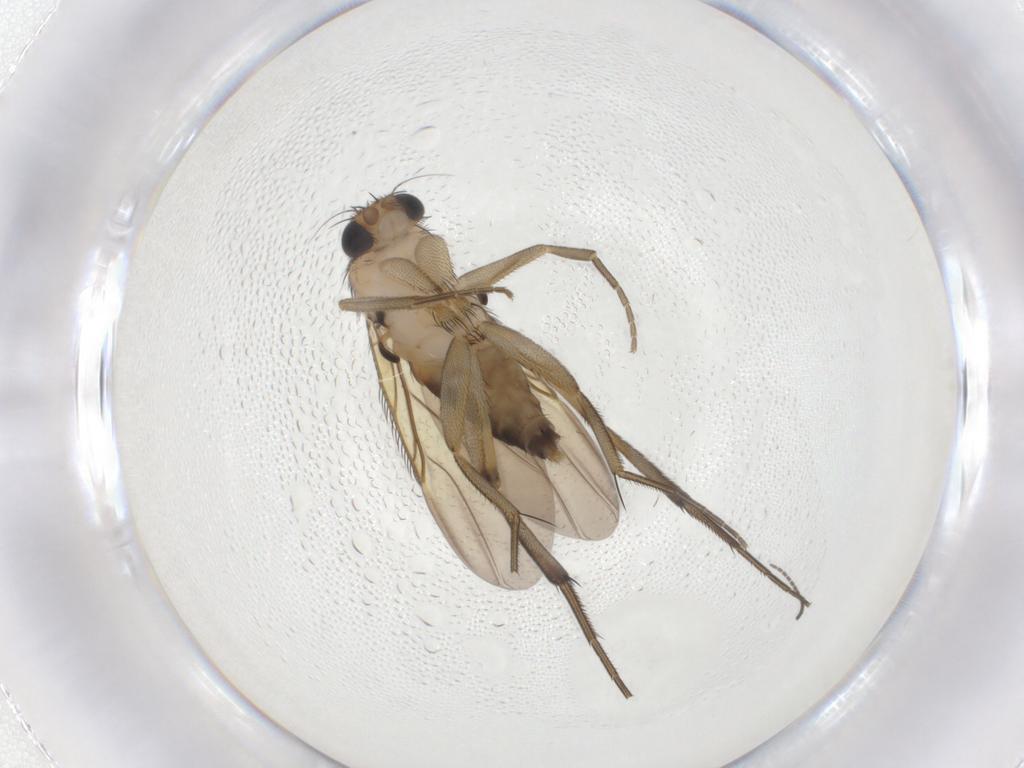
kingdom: Animalia
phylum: Arthropoda
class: Insecta
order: Diptera
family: Phoridae
